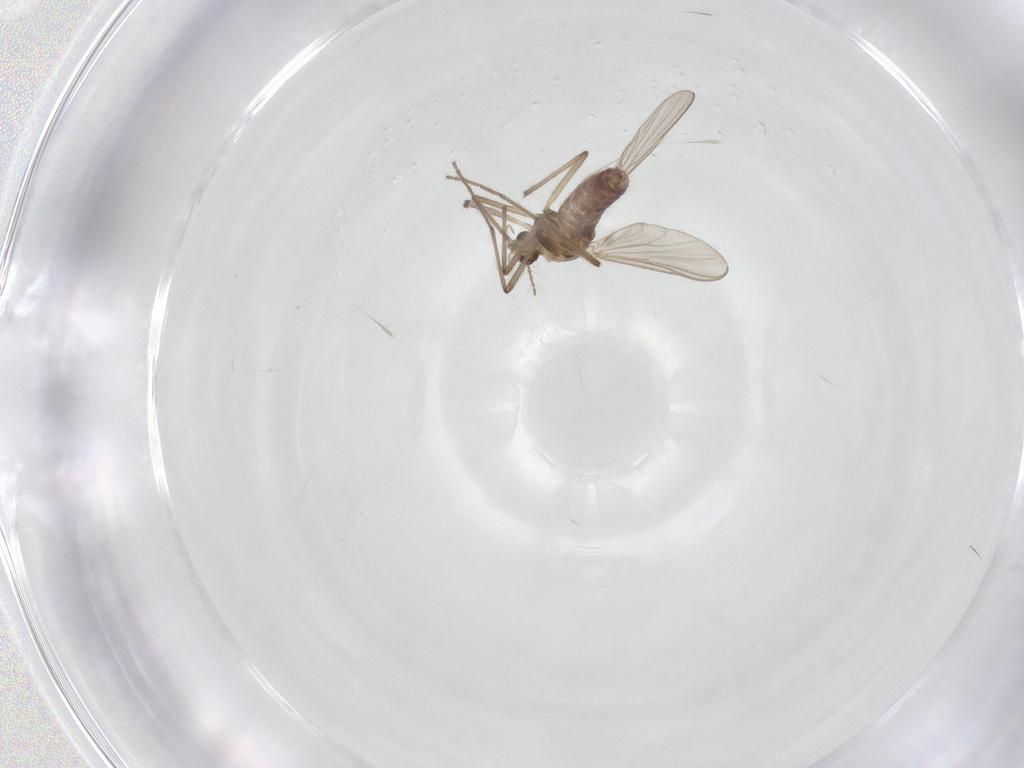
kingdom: Animalia
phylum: Arthropoda
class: Insecta
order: Diptera
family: Chironomidae
